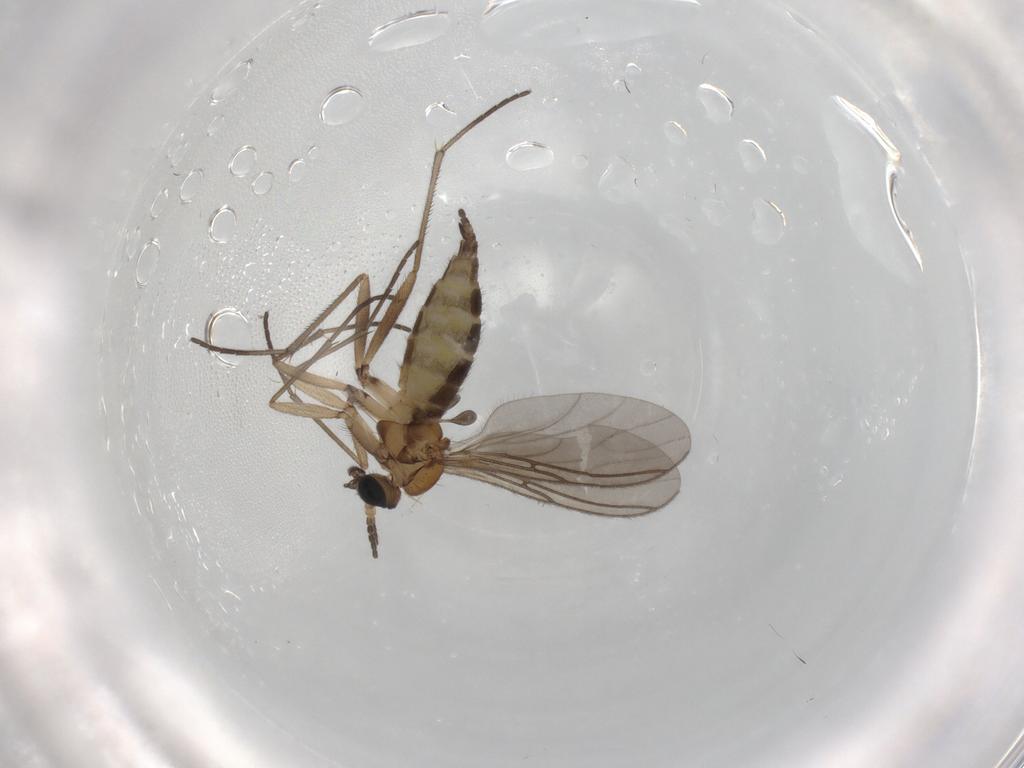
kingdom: Animalia
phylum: Arthropoda
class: Insecta
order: Diptera
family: Sciaridae
